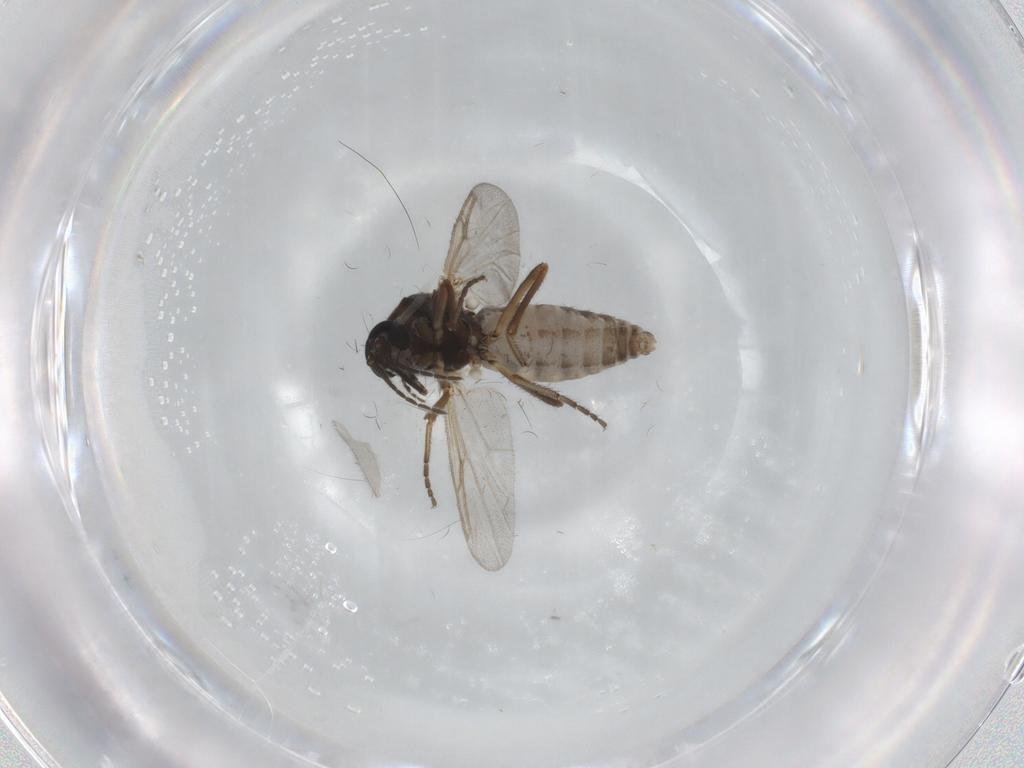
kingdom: Animalia
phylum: Arthropoda
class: Insecta
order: Diptera
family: Ceratopogonidae
